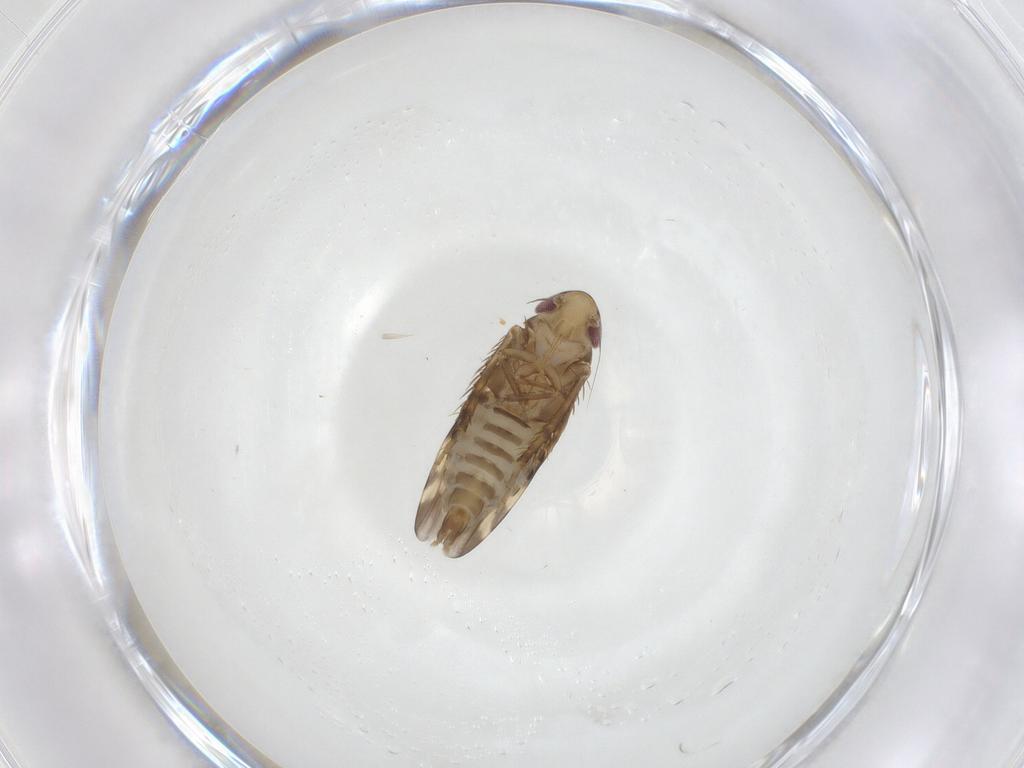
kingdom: Animalia
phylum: Arthropoda
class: Insecta
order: Hemiptera
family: Cicadellidae
